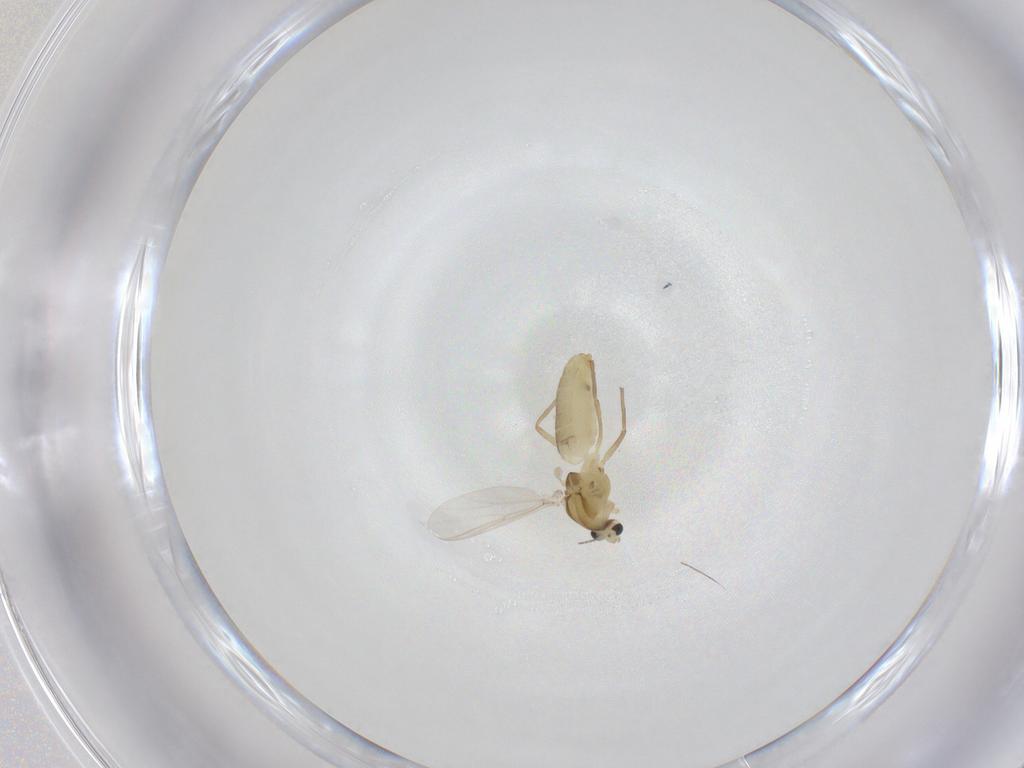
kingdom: Animalia
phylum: Arthropoda
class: Insecta
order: Diptera
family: Chironomidae
